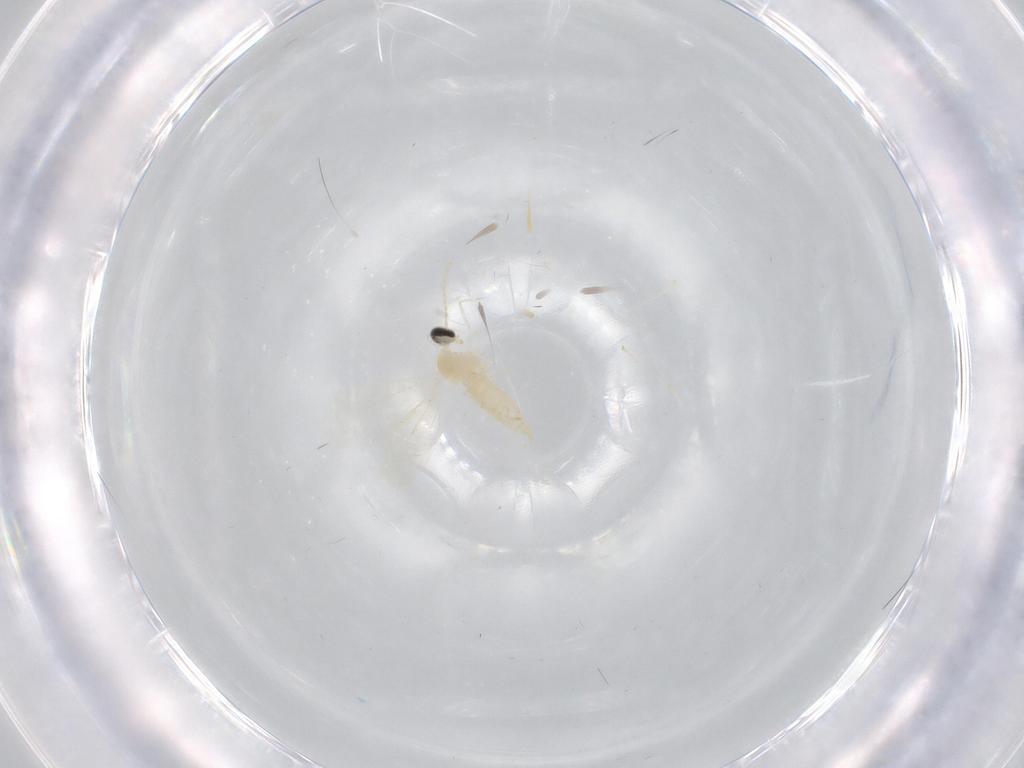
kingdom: Animalia
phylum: Arthropoda
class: Insecta
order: Diptera
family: Cecidomyiidae
